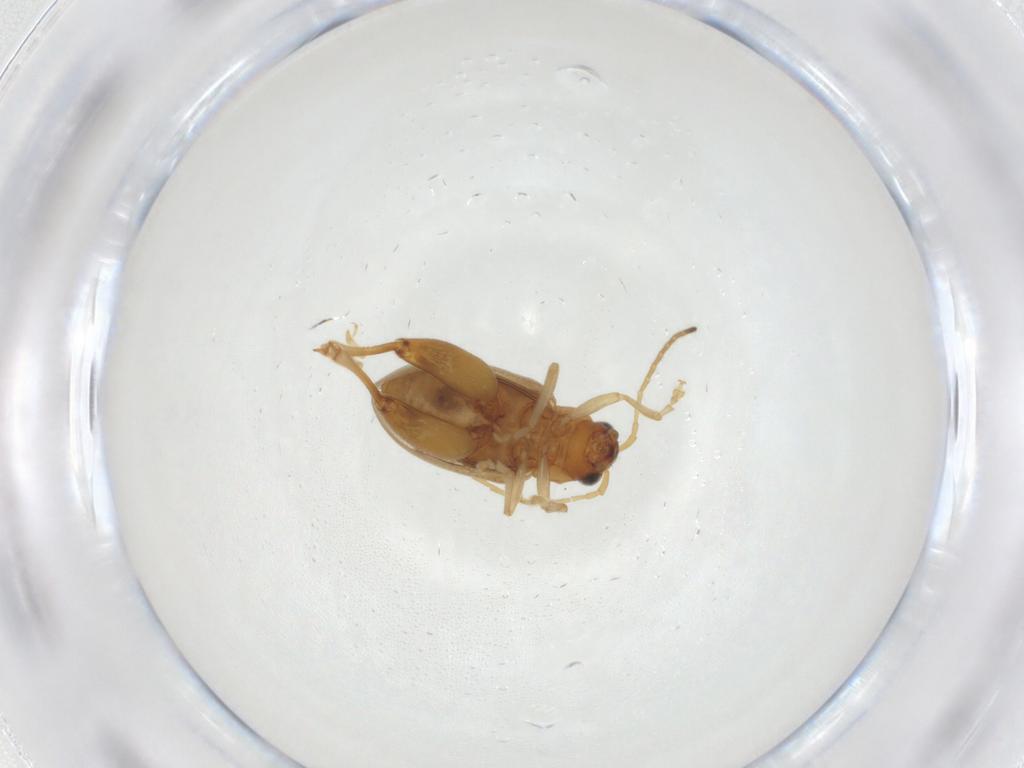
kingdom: Animalia
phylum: Arthropoda
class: Insecta
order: Coleoptera
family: Chrysomelidae
